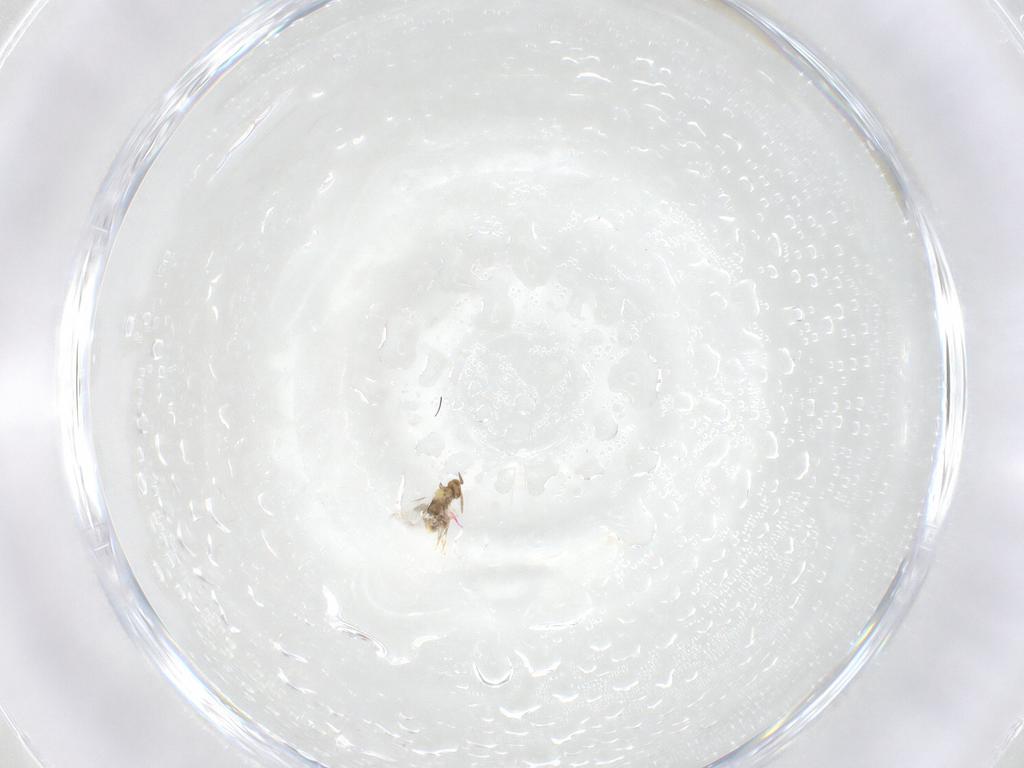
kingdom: Animalia
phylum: Arthropoda
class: Insecta
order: Hymenoptera
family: Aphelinidae
